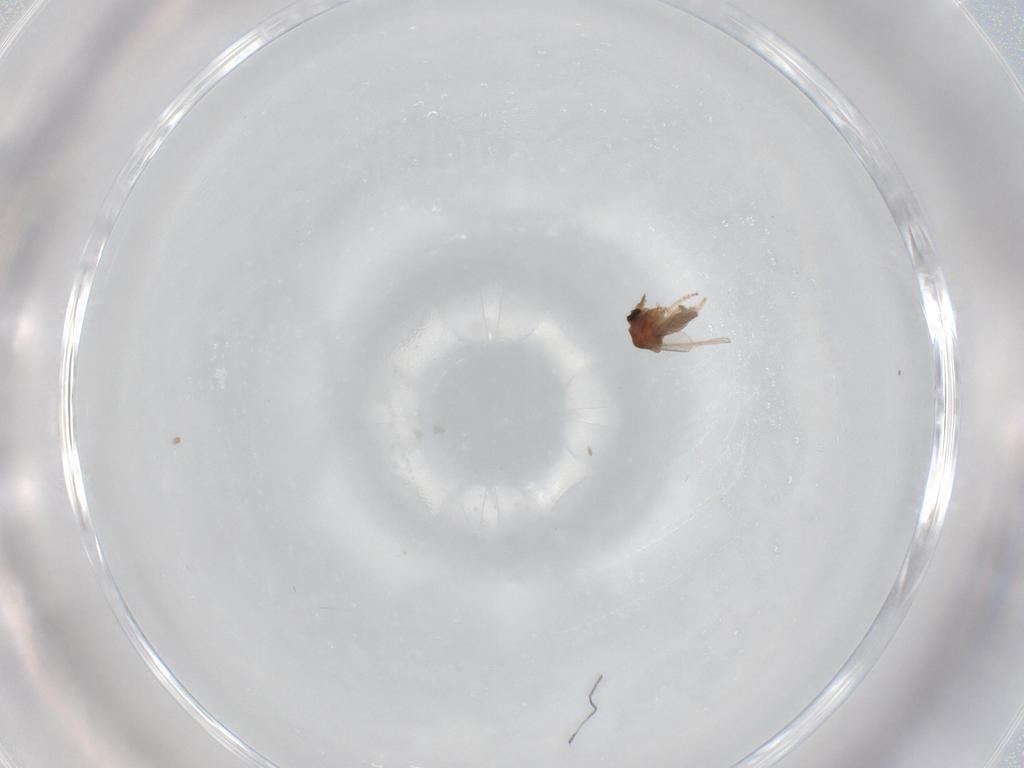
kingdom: Animalia
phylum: Arthropoda
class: Insecta
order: Diptera
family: Ceratopogonidae
